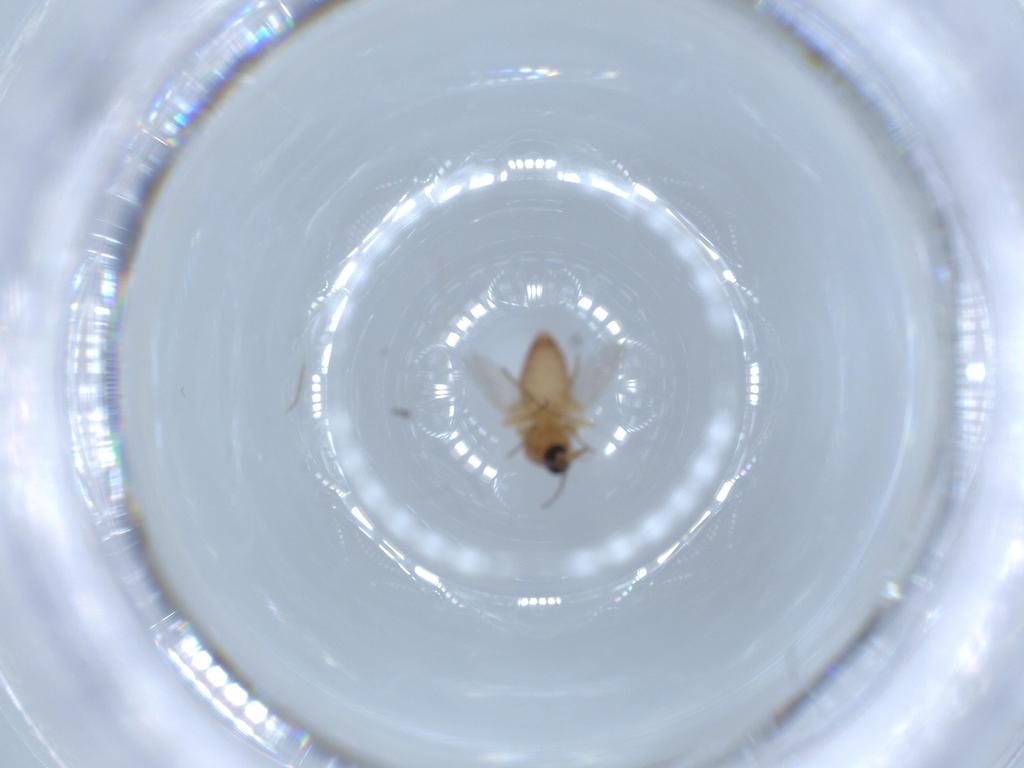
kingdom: Animalia
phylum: Arthropoda
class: Insecta
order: Diptera
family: Ceratopogonidae
